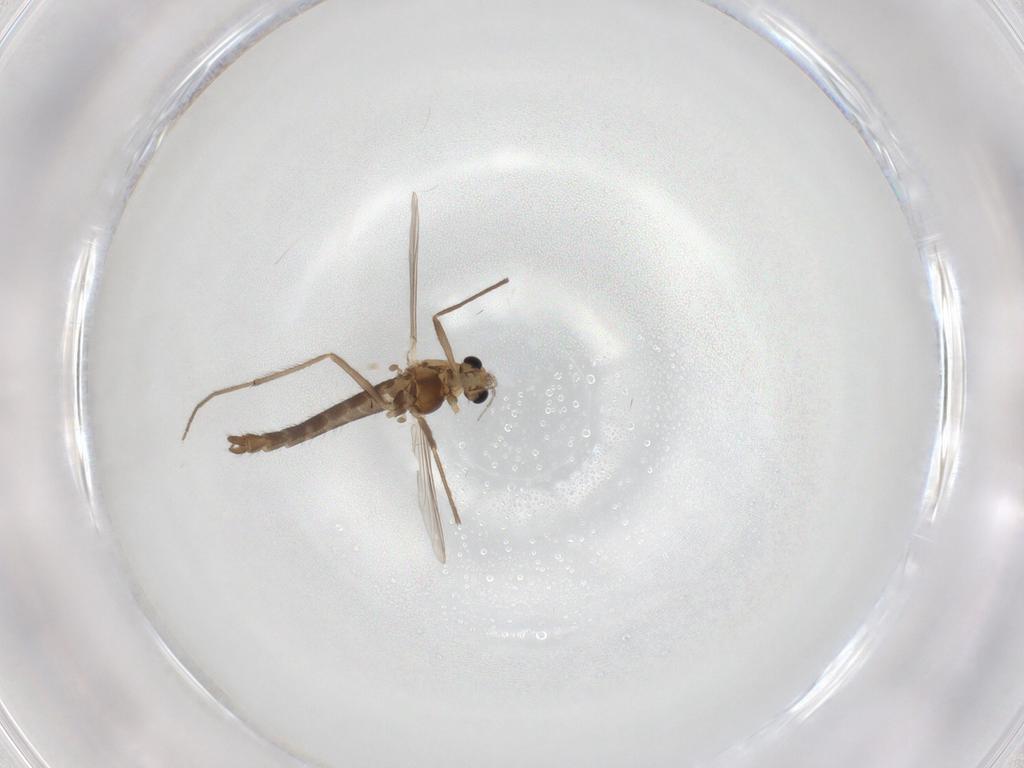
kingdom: Animalia
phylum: Arthropoda
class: Insecta
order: Diptera
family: Chironomidae
